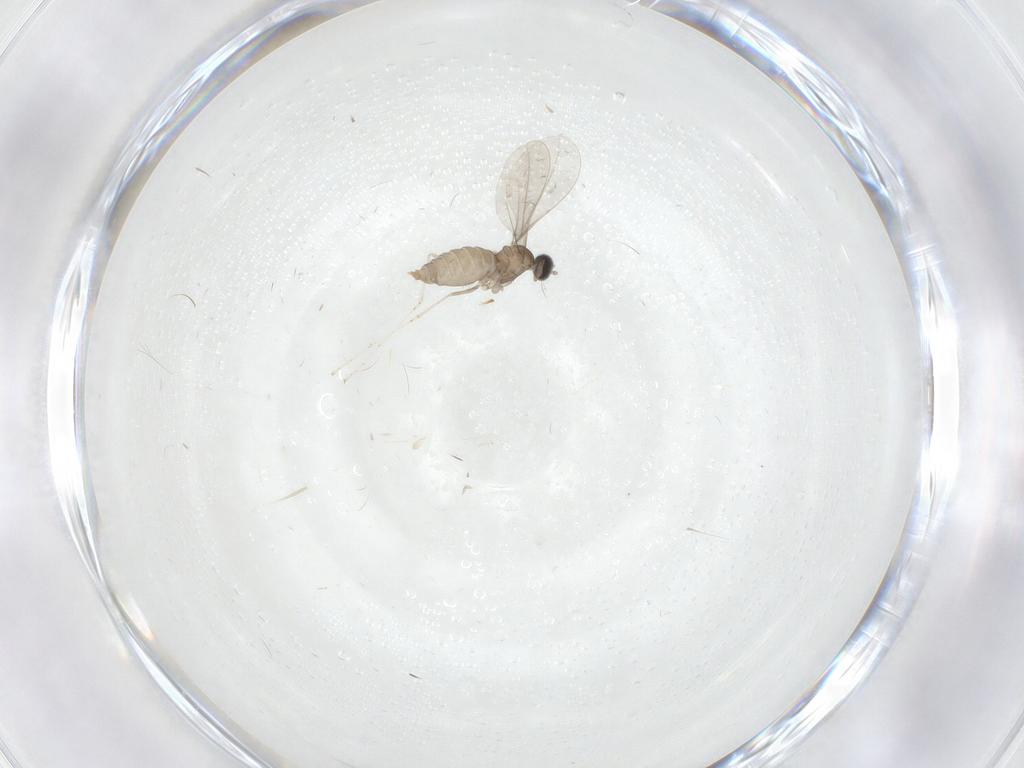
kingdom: Animalia
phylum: Arthropoda
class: Insecta
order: Diptera
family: Cecidomyiidae
